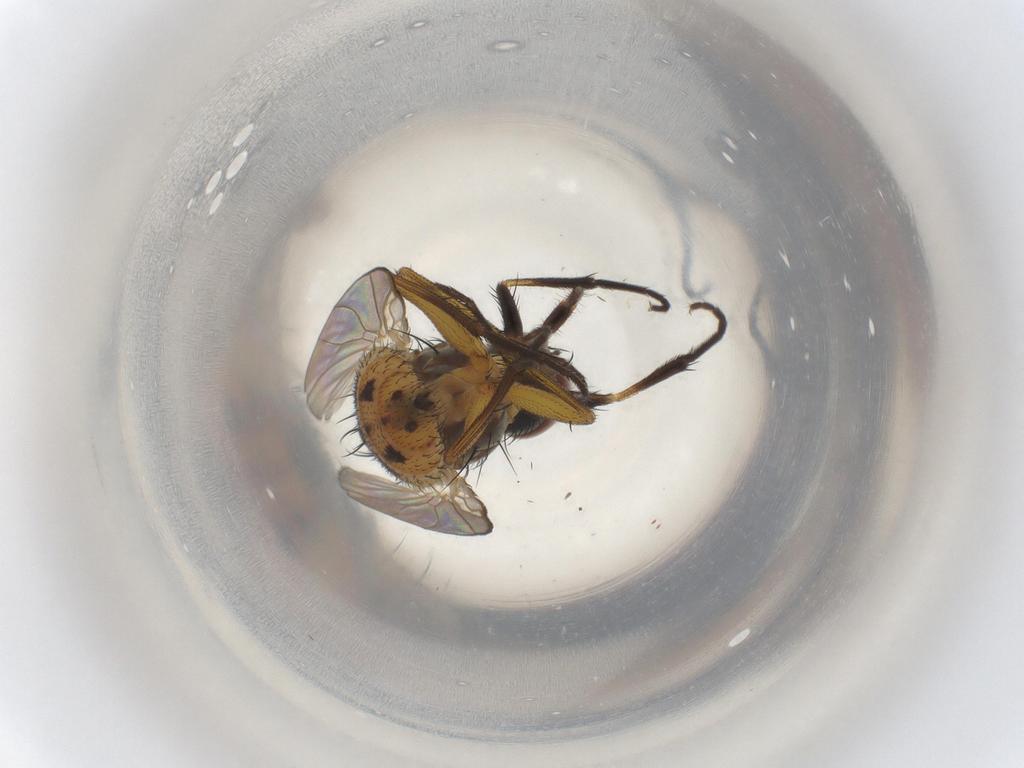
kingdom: Animalia
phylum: Arthropoda
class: Insecta
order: Diptera
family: Muscidae
